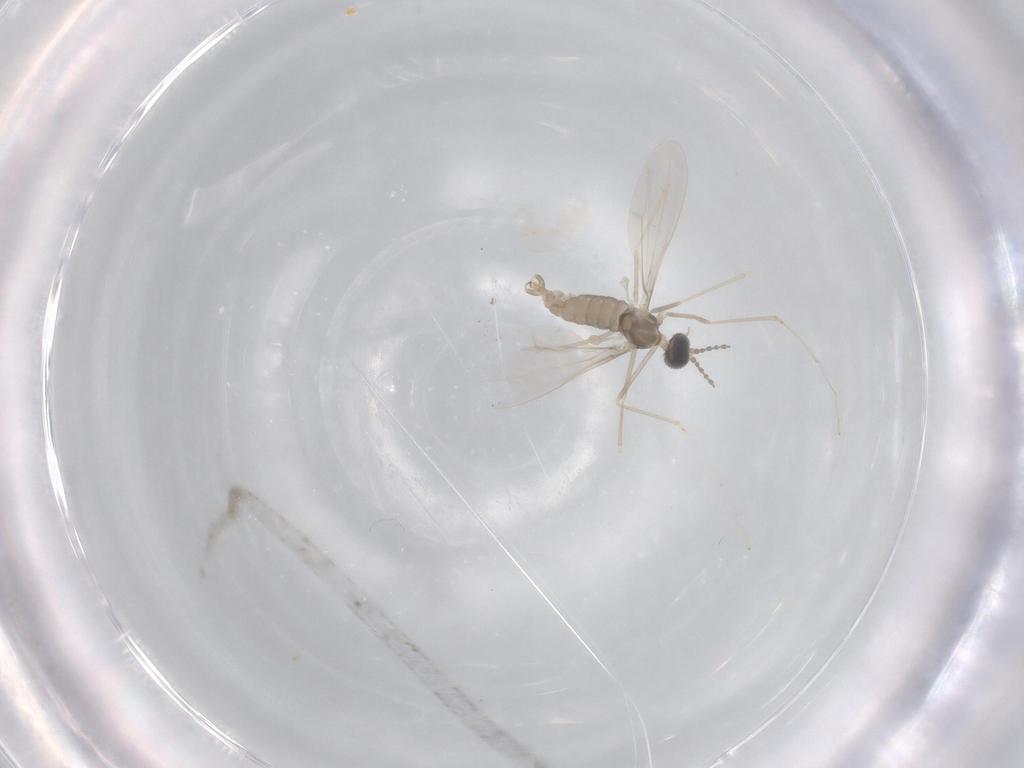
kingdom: Animalia
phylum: Arthropoda
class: Insecta
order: Diptera
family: Cecidomyiidae
